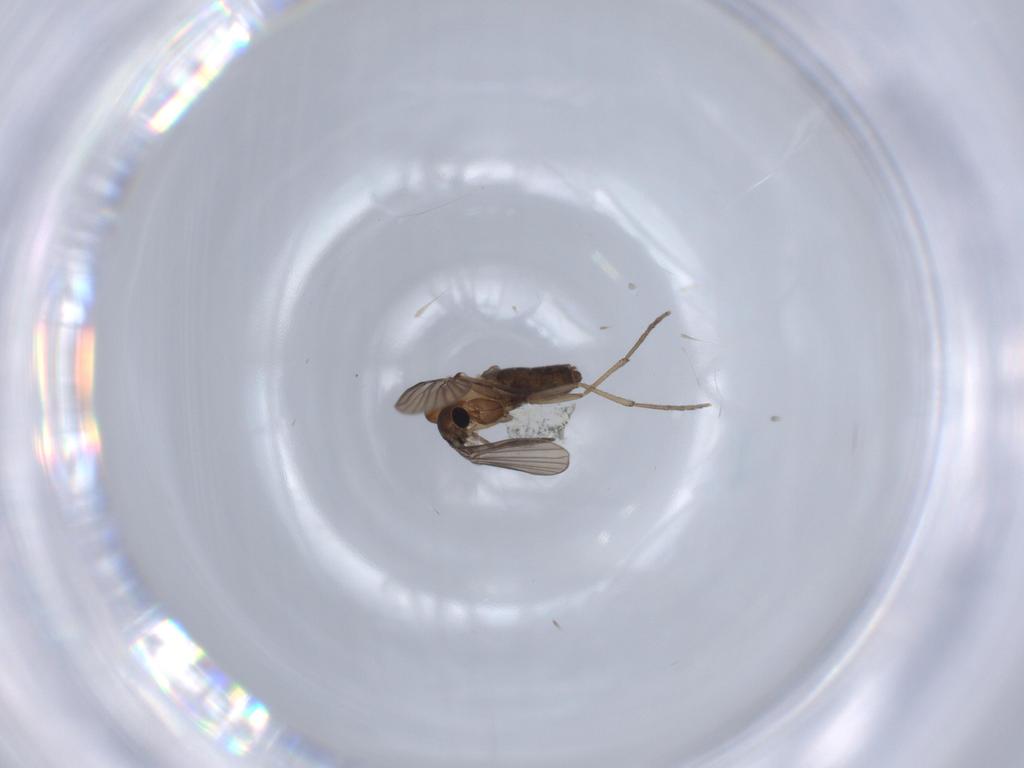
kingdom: Animalia
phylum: Arthropoda
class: Insecta
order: Diptera
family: Psychodidae
